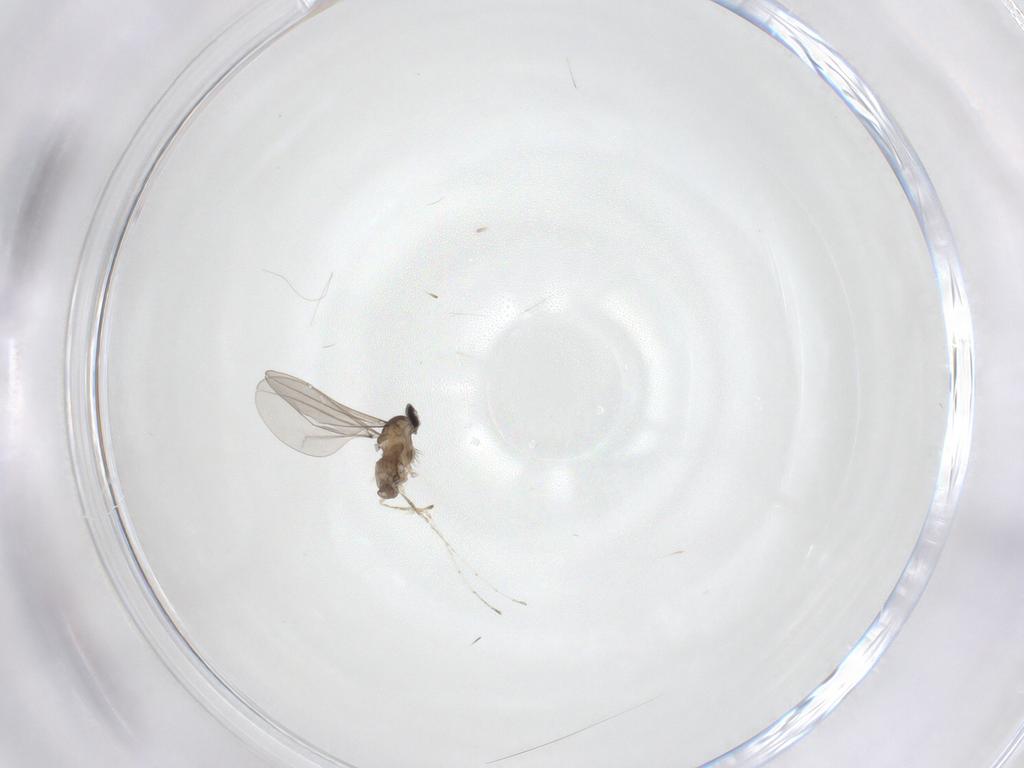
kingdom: Animalia
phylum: Arthropoda
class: Insecta
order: Diptera
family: Cecidomyiidae
